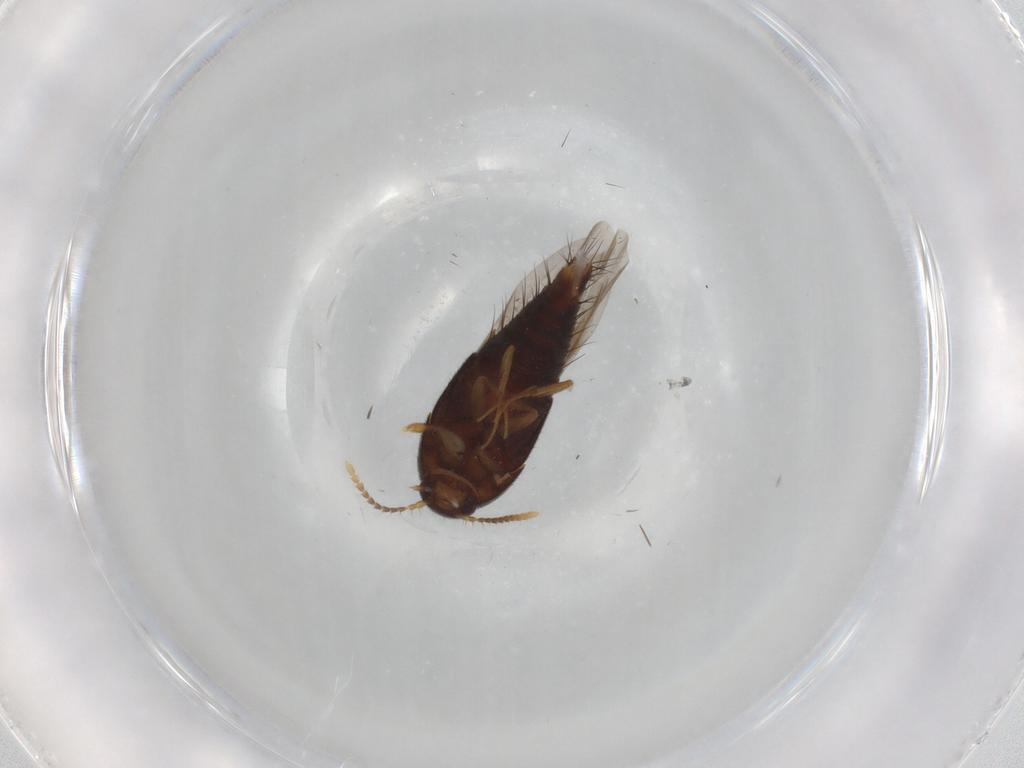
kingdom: Animalia
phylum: Arthropoda
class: Insecta
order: Coleoptera
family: Staphylinidae
